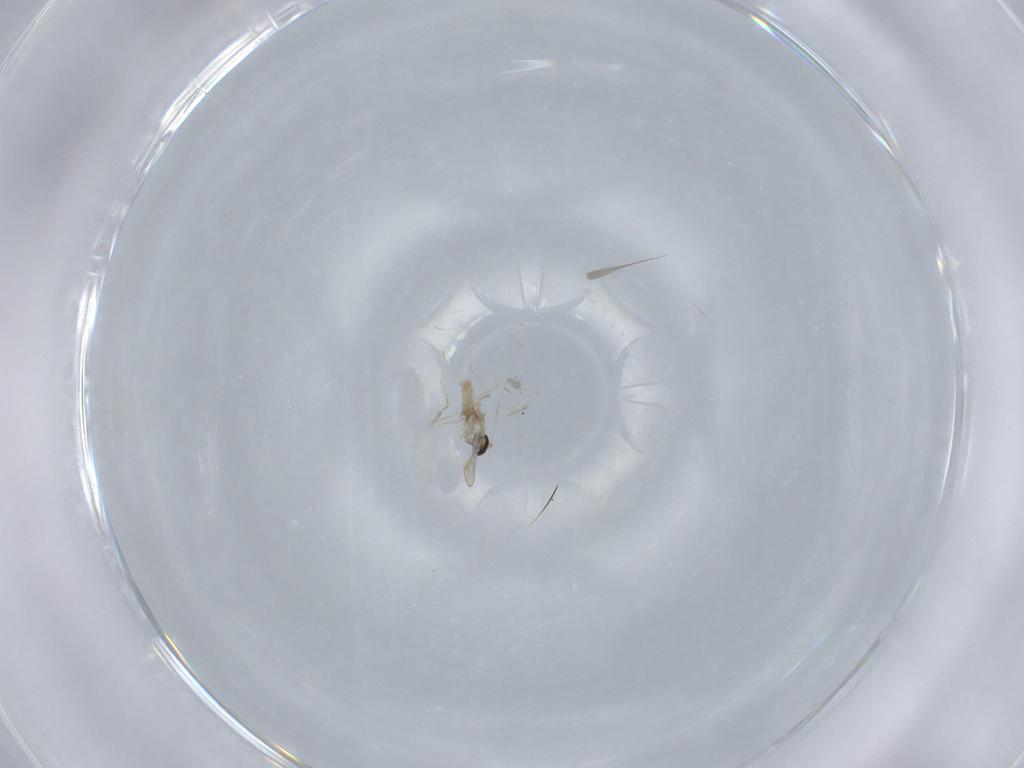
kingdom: Animalia
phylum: Arthropoda
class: Insecta
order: Diptera
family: Cecidomyiidae
